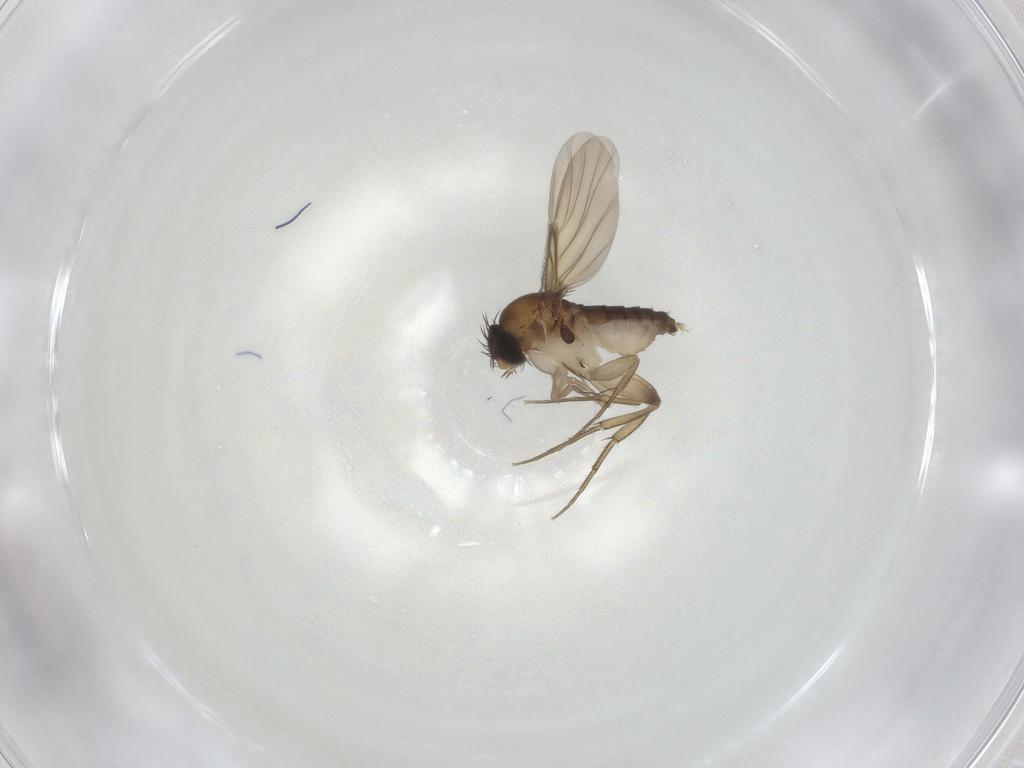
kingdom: Animalia
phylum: Arthropoda
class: Insecta
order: Diptera
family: Phoridae
